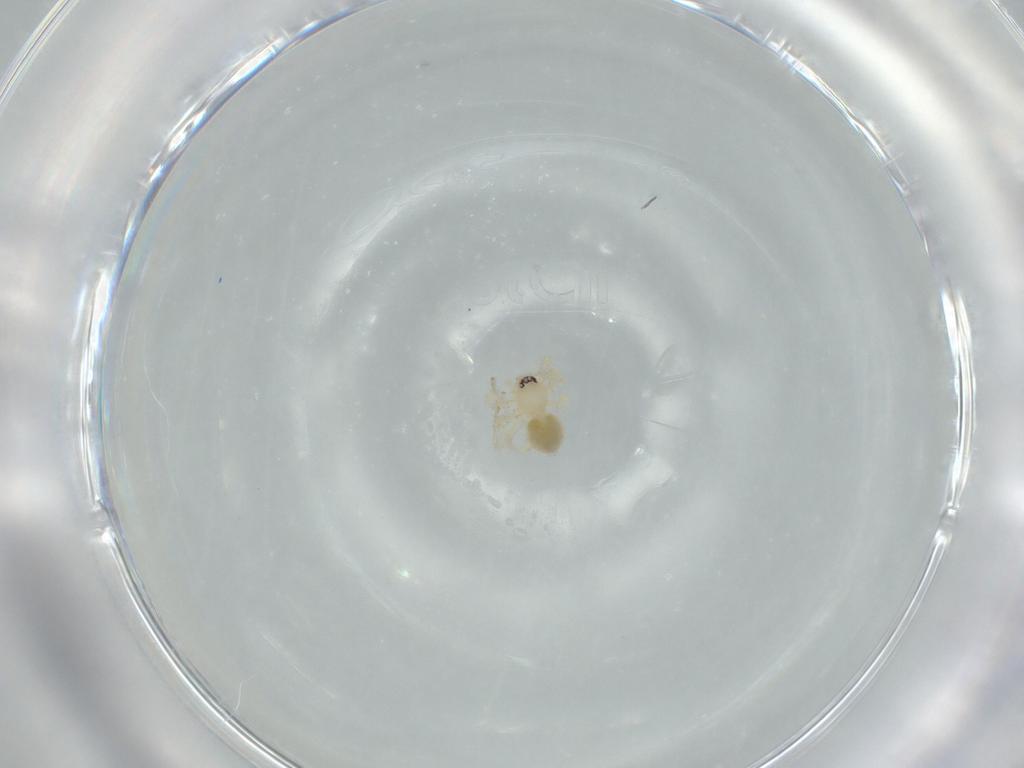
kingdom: Animalia
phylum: Arthropoda
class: Arachnida
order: Araneae
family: Oonopidae
